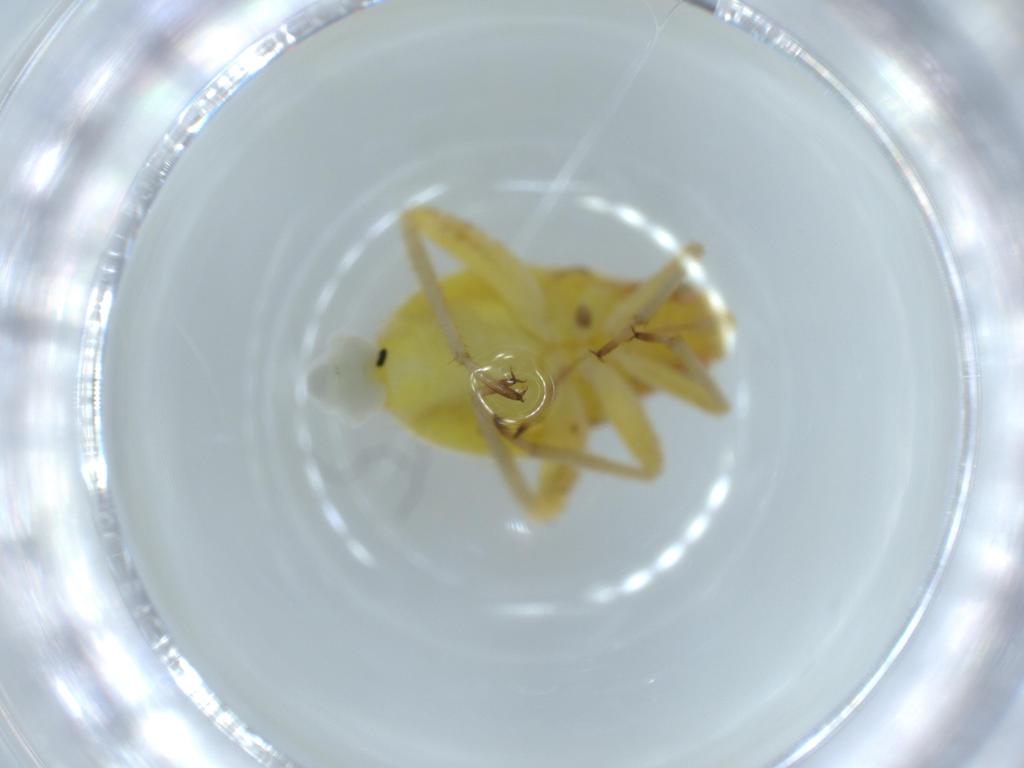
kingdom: Animalia
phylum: Arthropoda
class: Insecta
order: Hemiptera
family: Miridae
